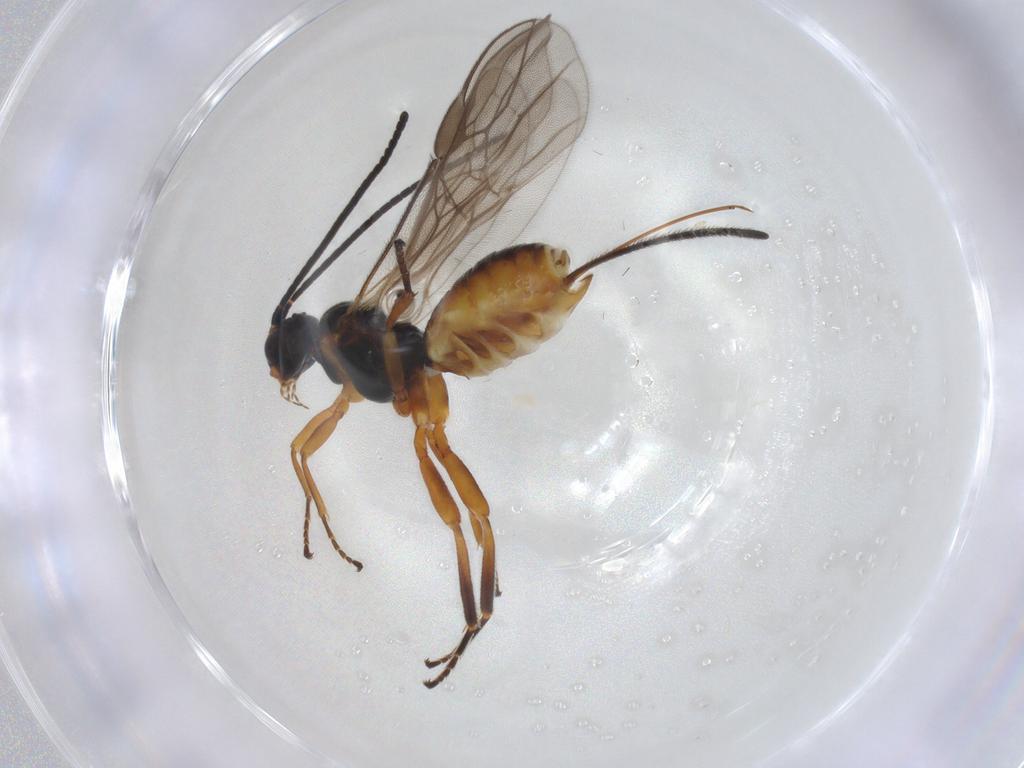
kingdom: Animalia
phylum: Arthropoda
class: Insecta
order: Hymenoptera
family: Braconidae
